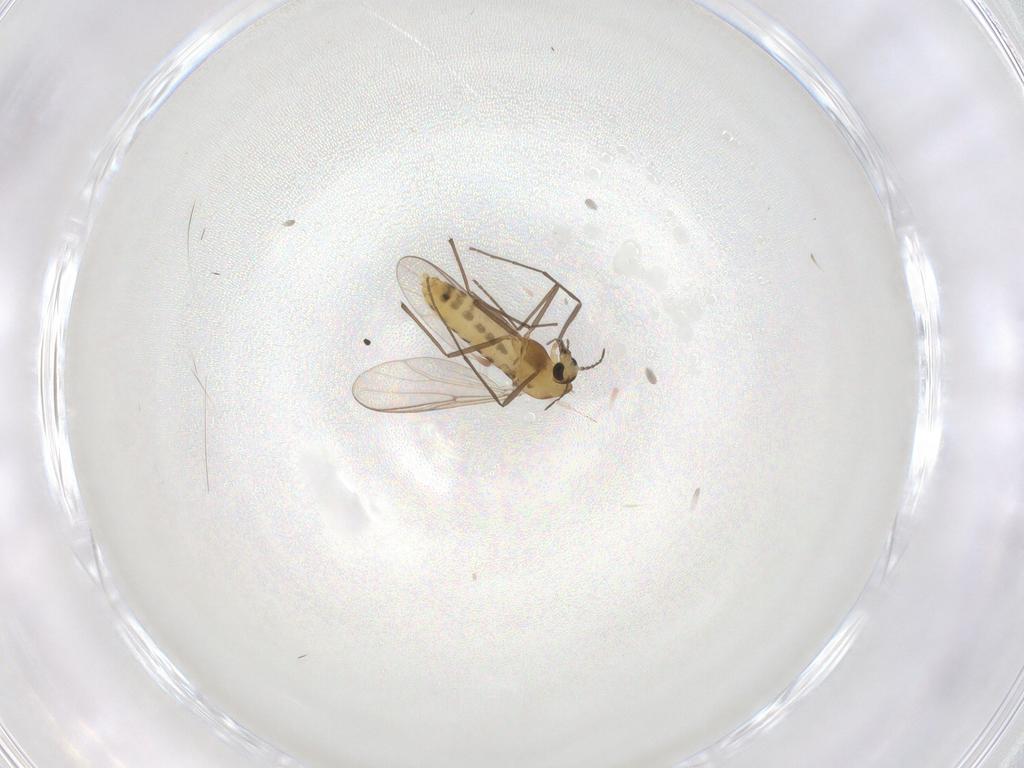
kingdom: Animalia
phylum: Arthropoda
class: Insecta
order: Diptera
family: Chironomidae
